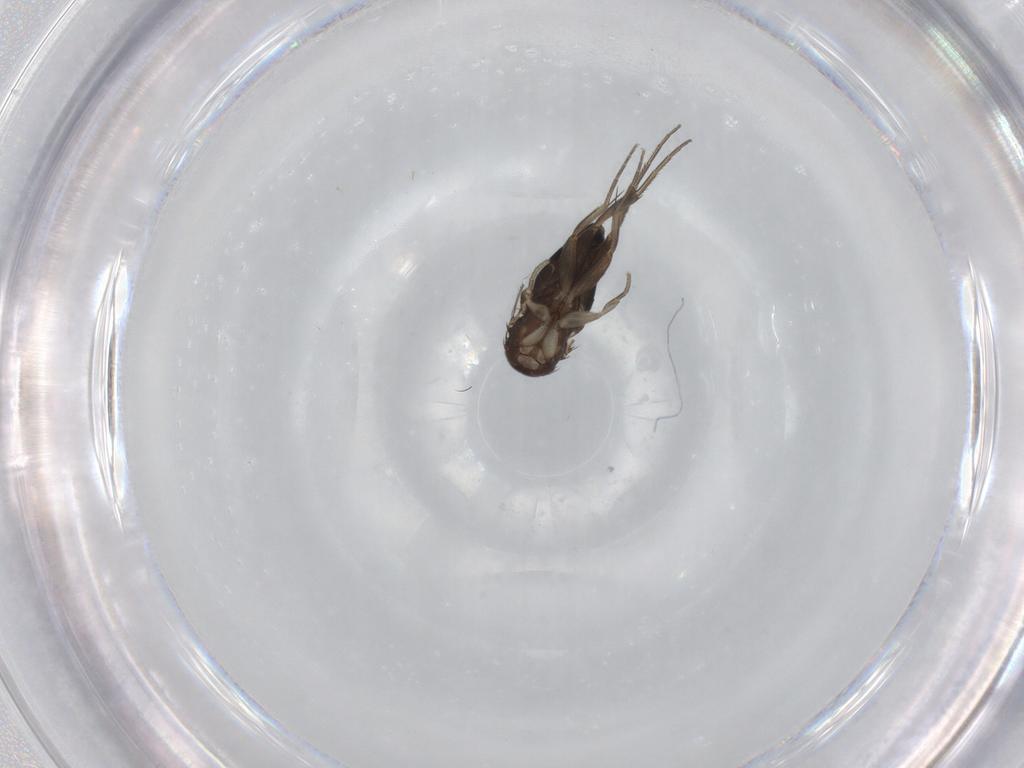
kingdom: Animalia
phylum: Arthropoda
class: Insecta
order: Diptera
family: Phoridae
